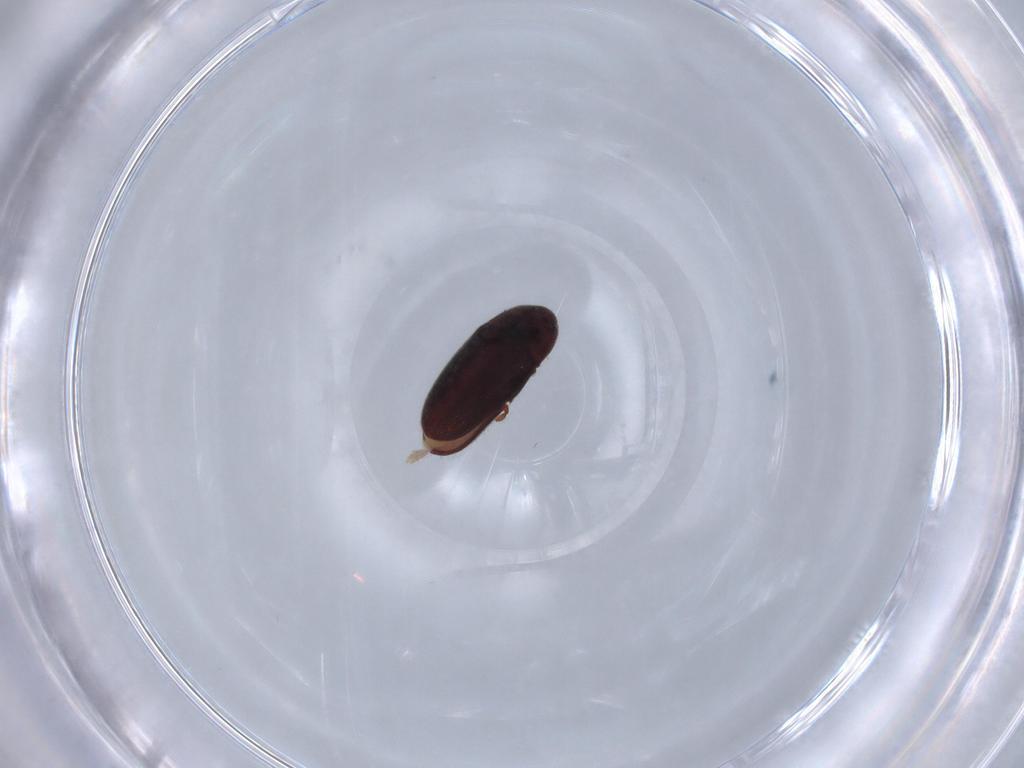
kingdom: Animalia
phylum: Arthropoda
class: Insecta
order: Coleoptera
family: Throscidae
